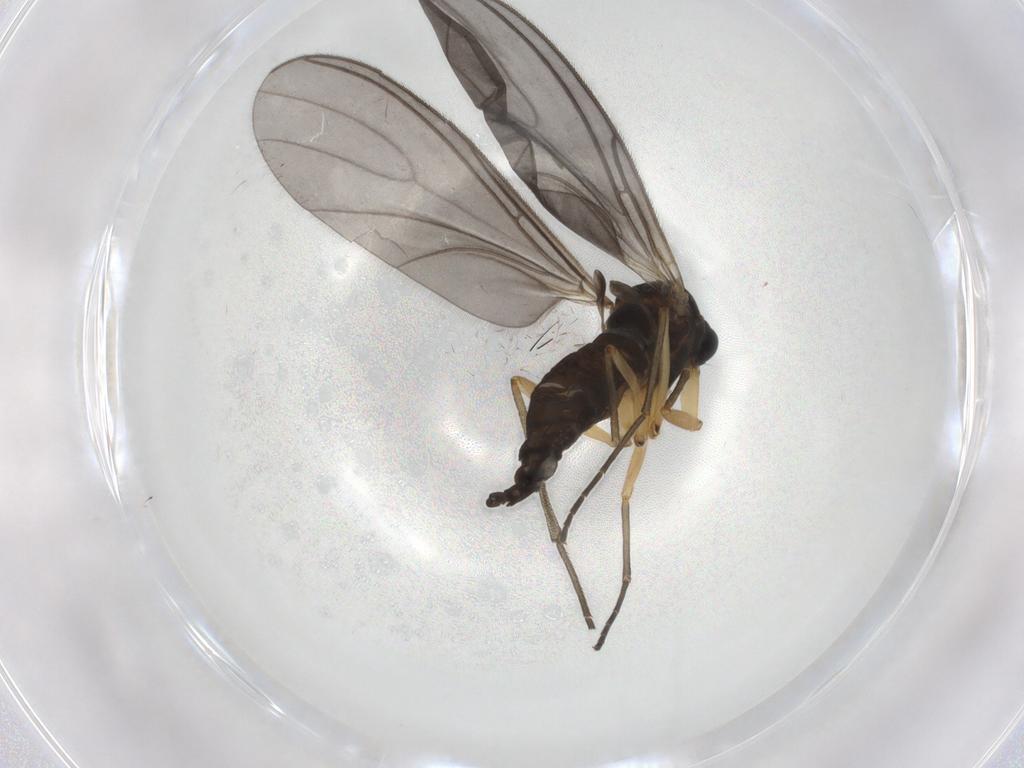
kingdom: Animalia
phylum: Arthropoda
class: Insecta
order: Diptera
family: Sciaridae
